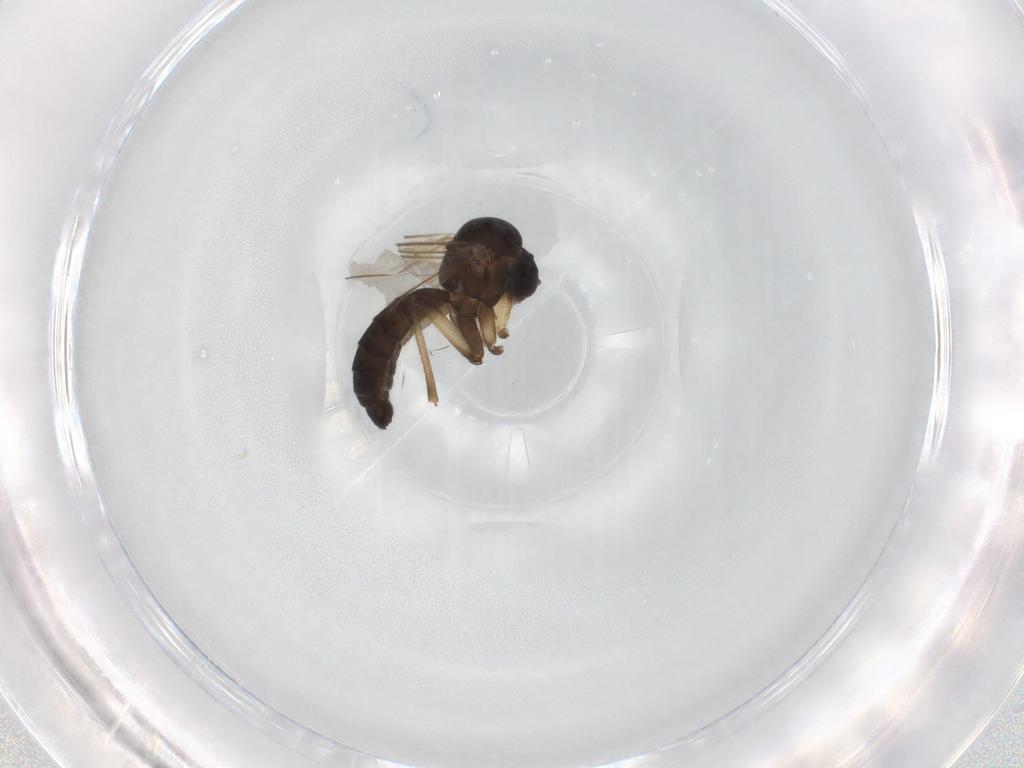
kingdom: Animalia
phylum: Arthropoda
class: Insecta
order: Diptera
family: Mycetophilidae
